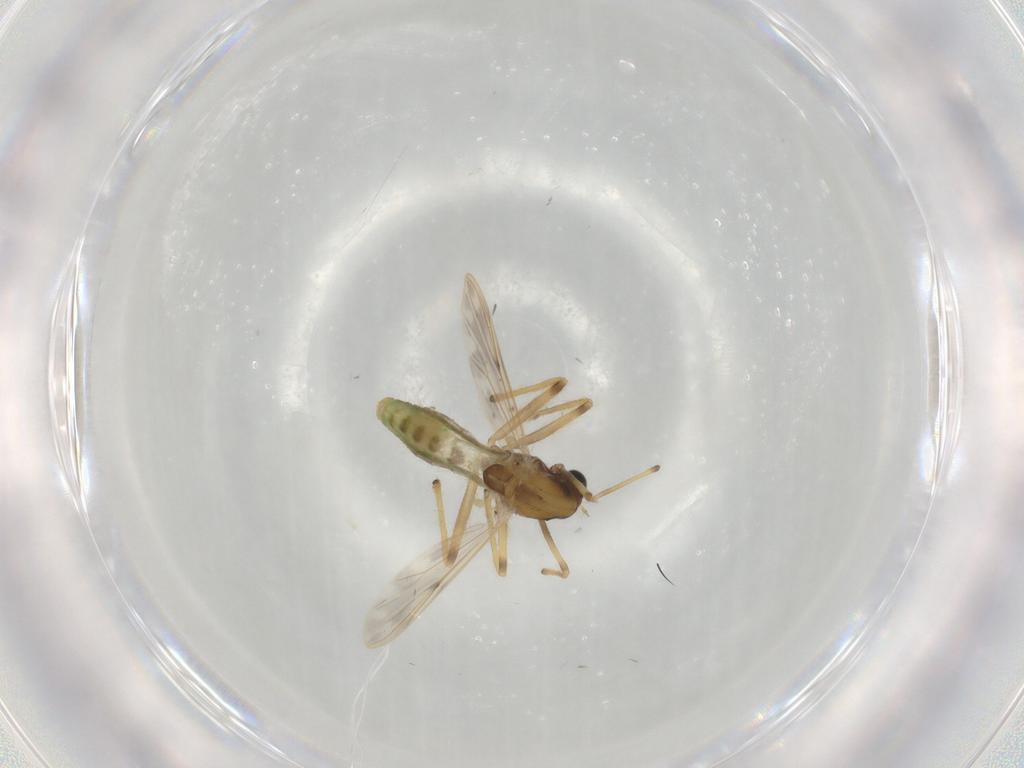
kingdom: Animalia
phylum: Arthropoda
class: Insecta
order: Diptera
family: Chironomidae
